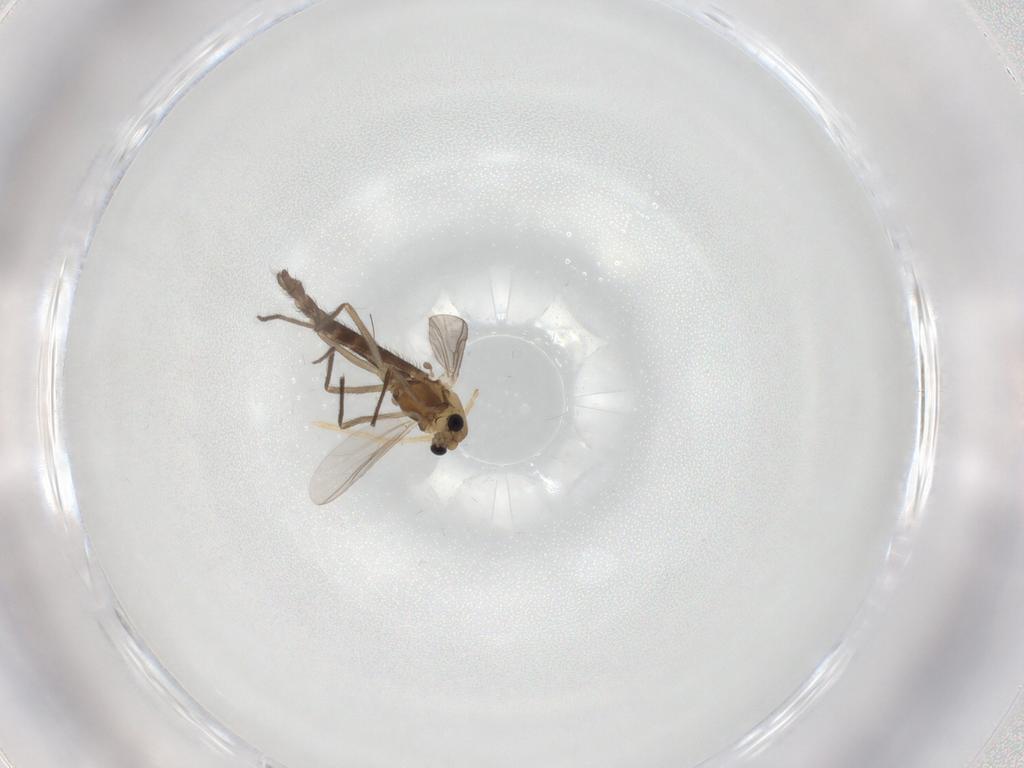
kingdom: Animalia
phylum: Arthropoda
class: Insecta
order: Diptera
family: Chironomidae
